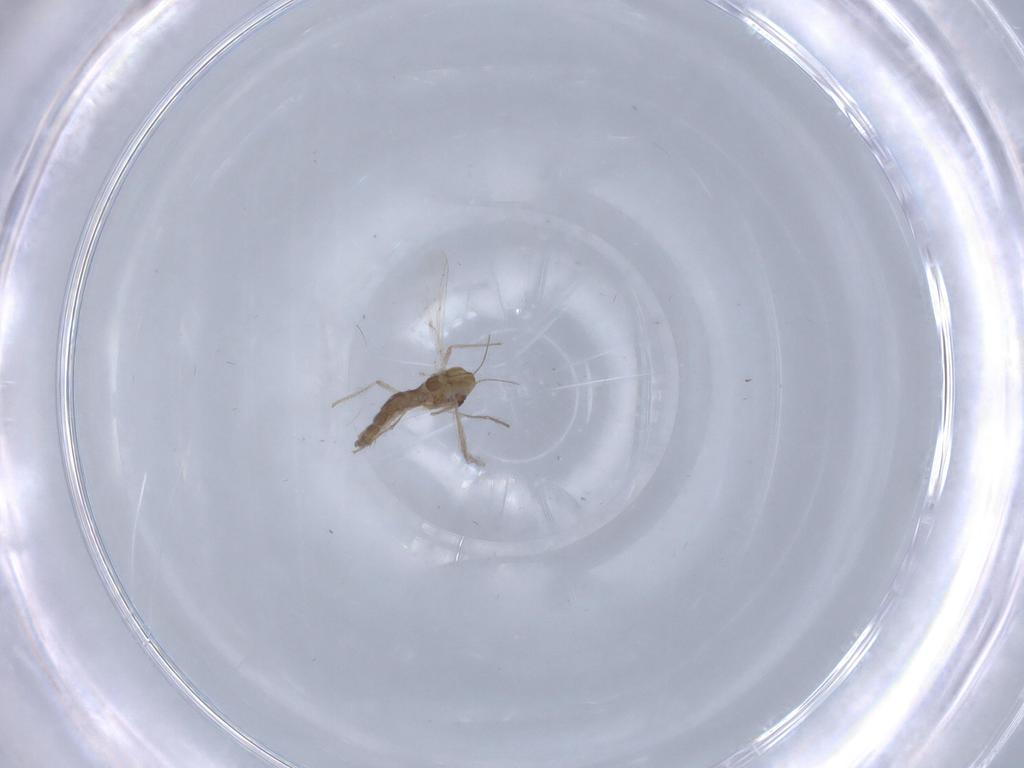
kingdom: Animalia
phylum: Arthropoda
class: Insecta
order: Diptera
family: Chironomidae
